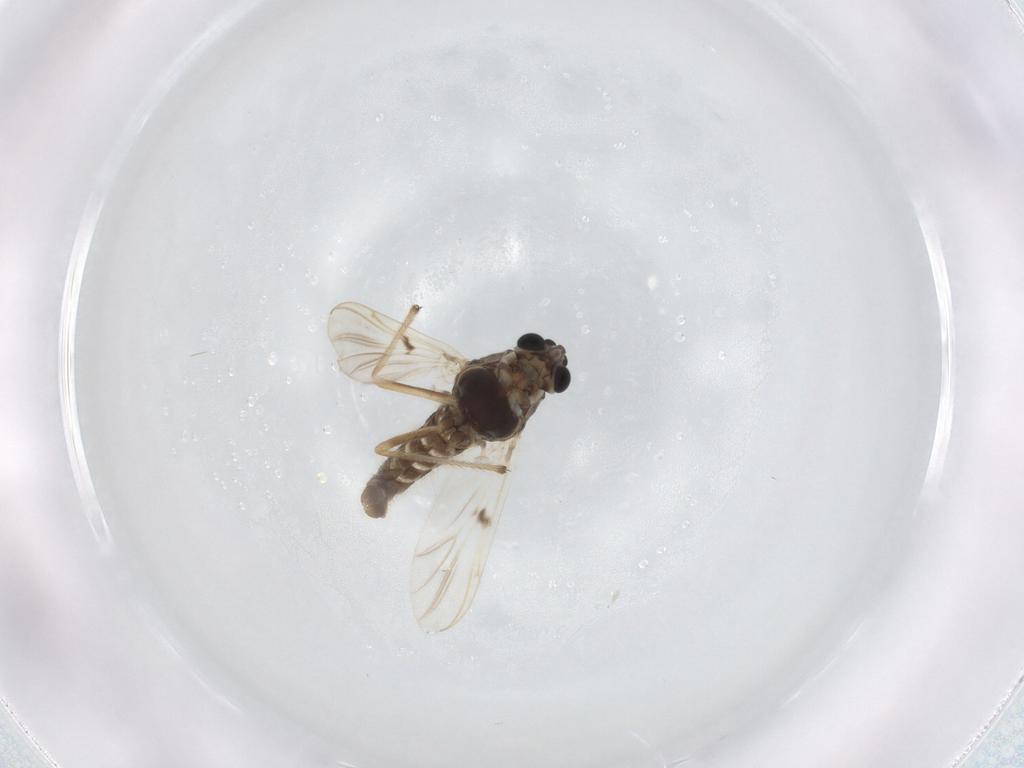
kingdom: Animalia
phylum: Arthropoda
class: Insecta
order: Diptera
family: Chironomidae
